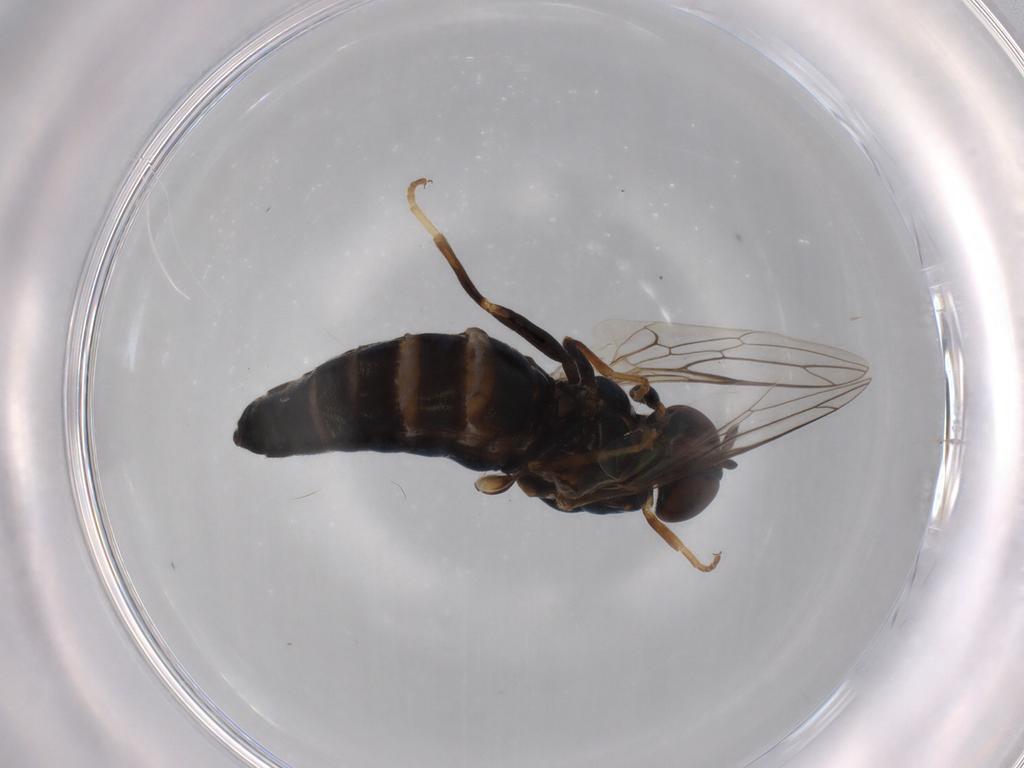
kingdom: Animalia
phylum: Arthropoda
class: Insecta
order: Diptera
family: Scenopinidae
